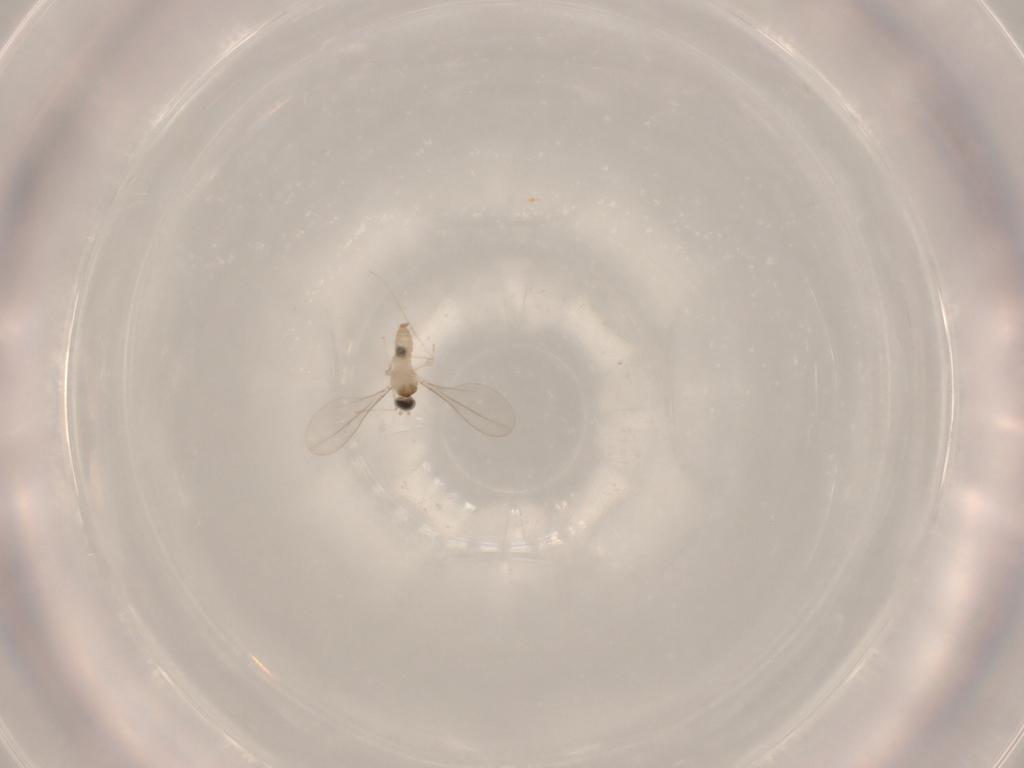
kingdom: Animalia
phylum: Arthropoda
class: Insecta
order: Diptera
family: Cecidomyiidae
